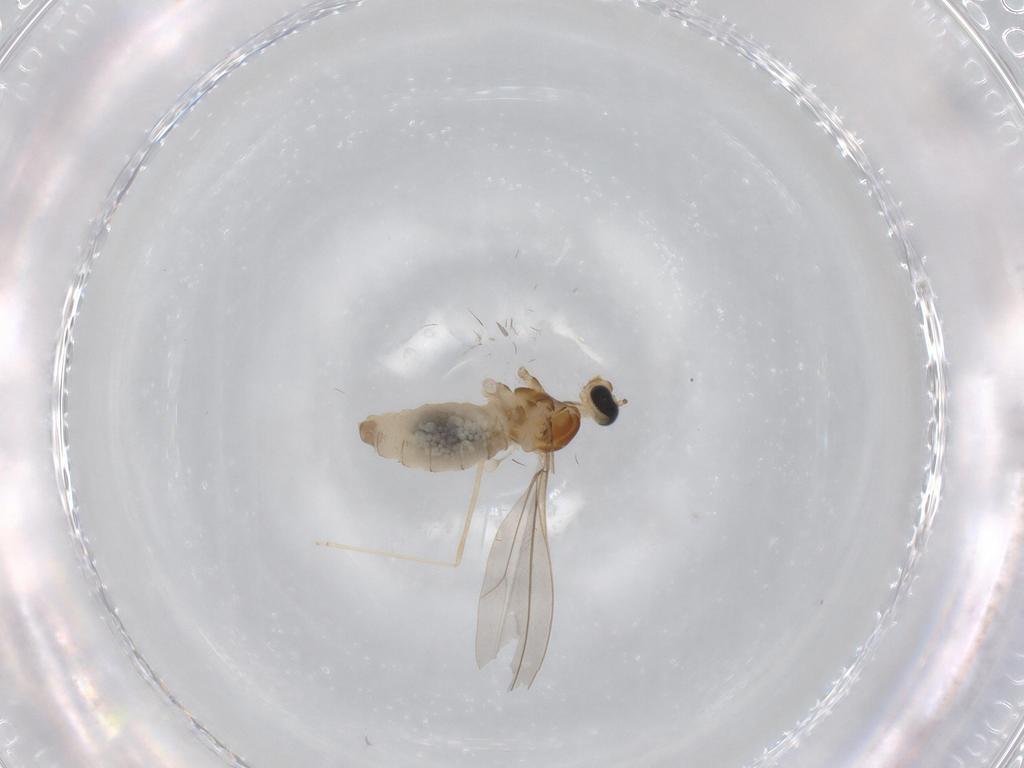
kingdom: Animalia
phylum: Arthropoda
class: Insecta
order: Diptera
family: Cecidomyiidae
